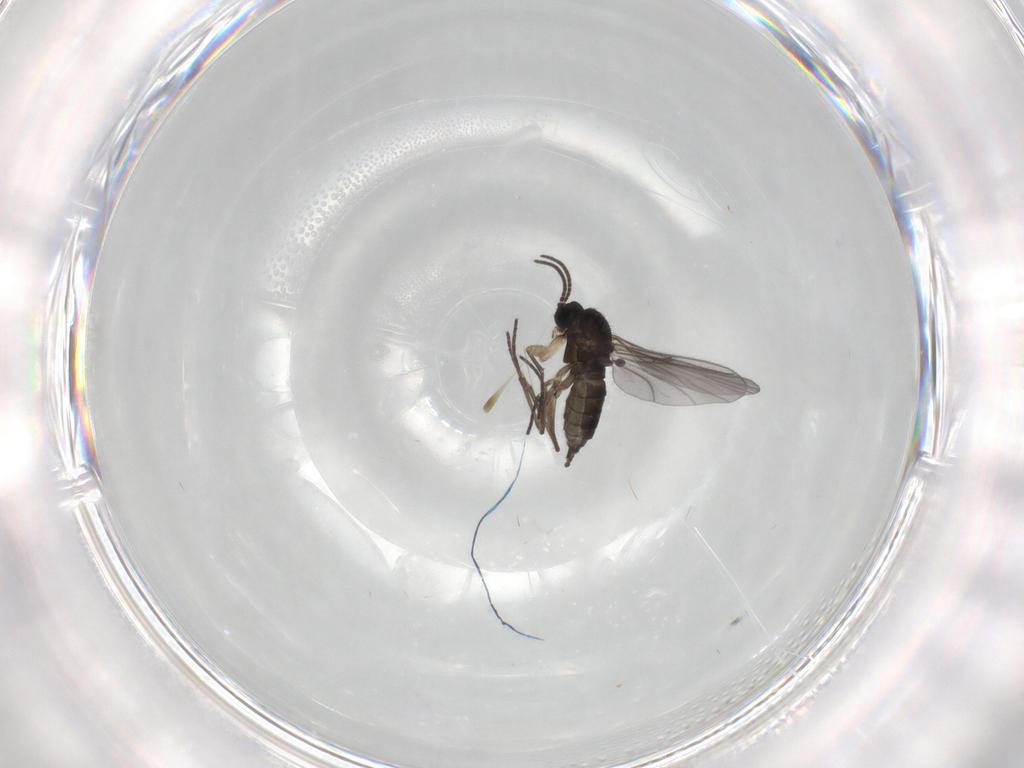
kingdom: Animalia
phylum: Arthropoda
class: Insecta
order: Diptera
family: Sciaridae
